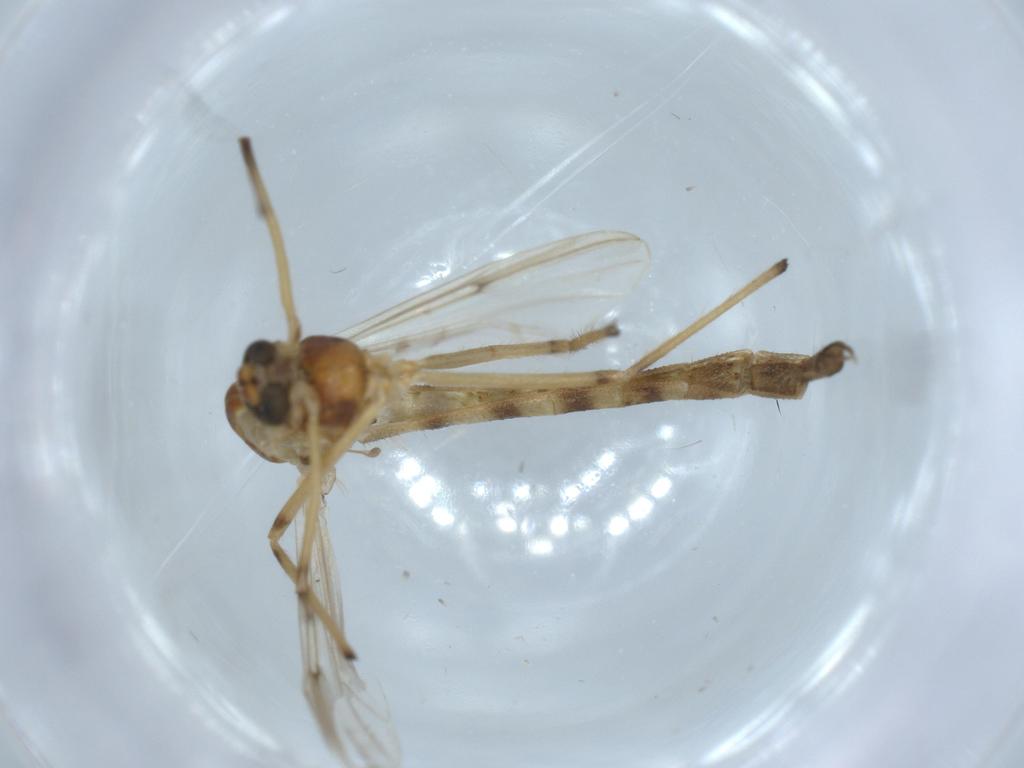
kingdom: Animalia
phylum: Arthropoda
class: Insecta
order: Diptera
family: Chironomidae
